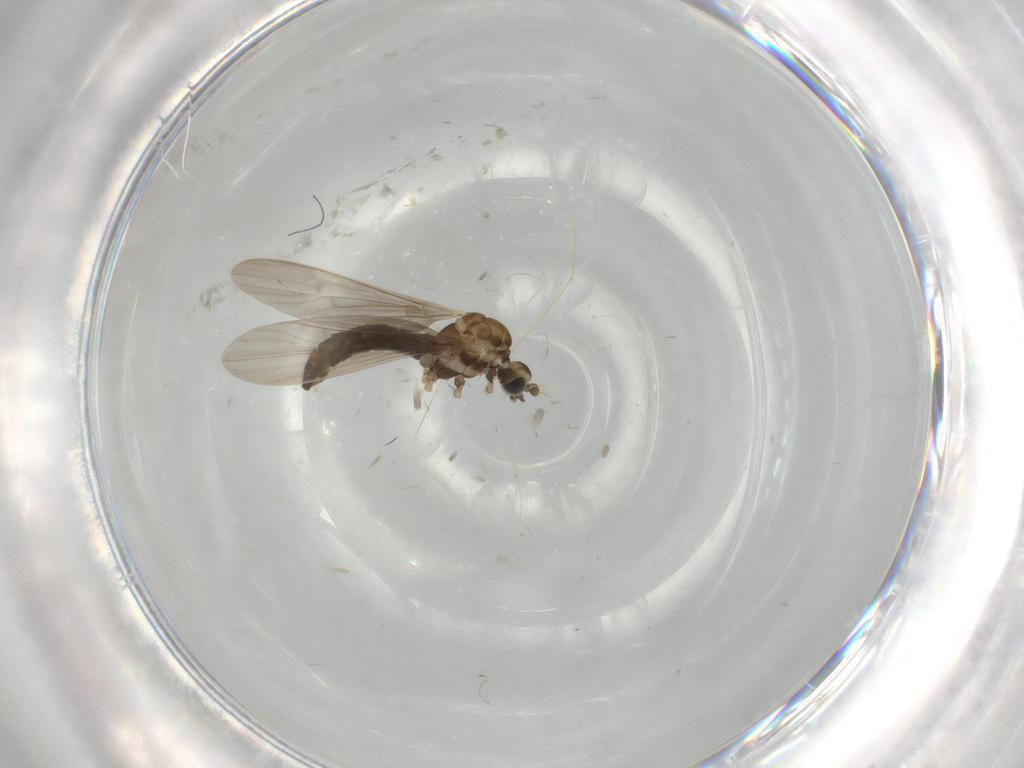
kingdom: Animalia
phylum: Arthropoda
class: Insecta
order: Diptera
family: Limoniidae
